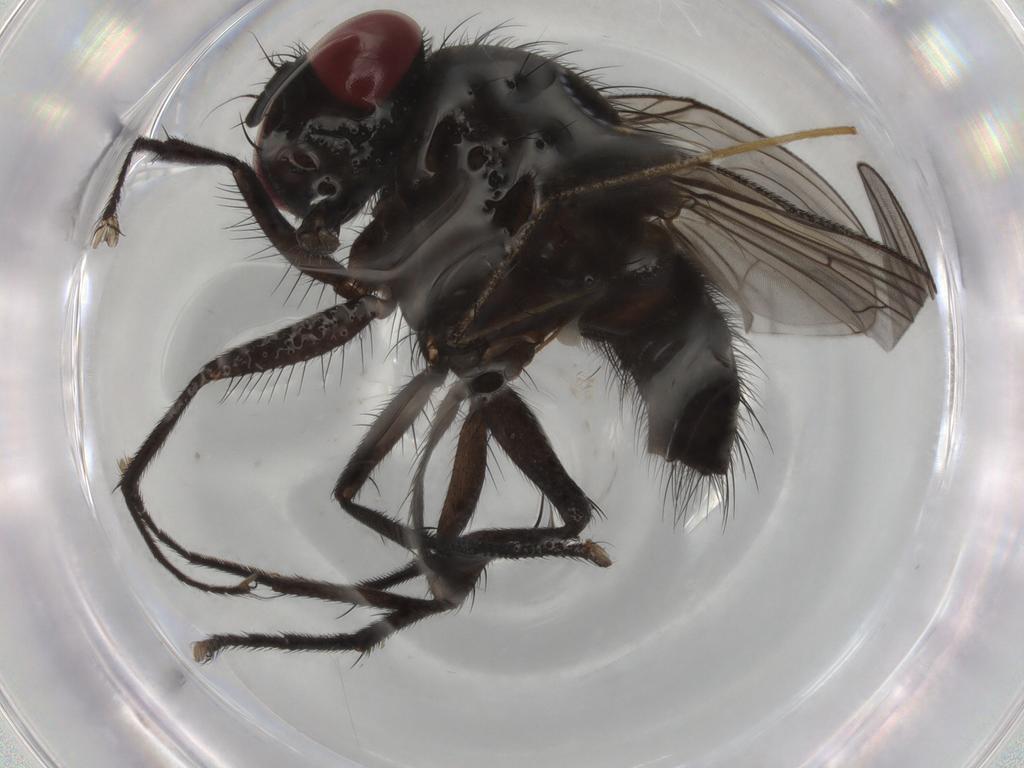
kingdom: Animalia
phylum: Arthropoda
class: Insecta
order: Diptera
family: Muscidae
